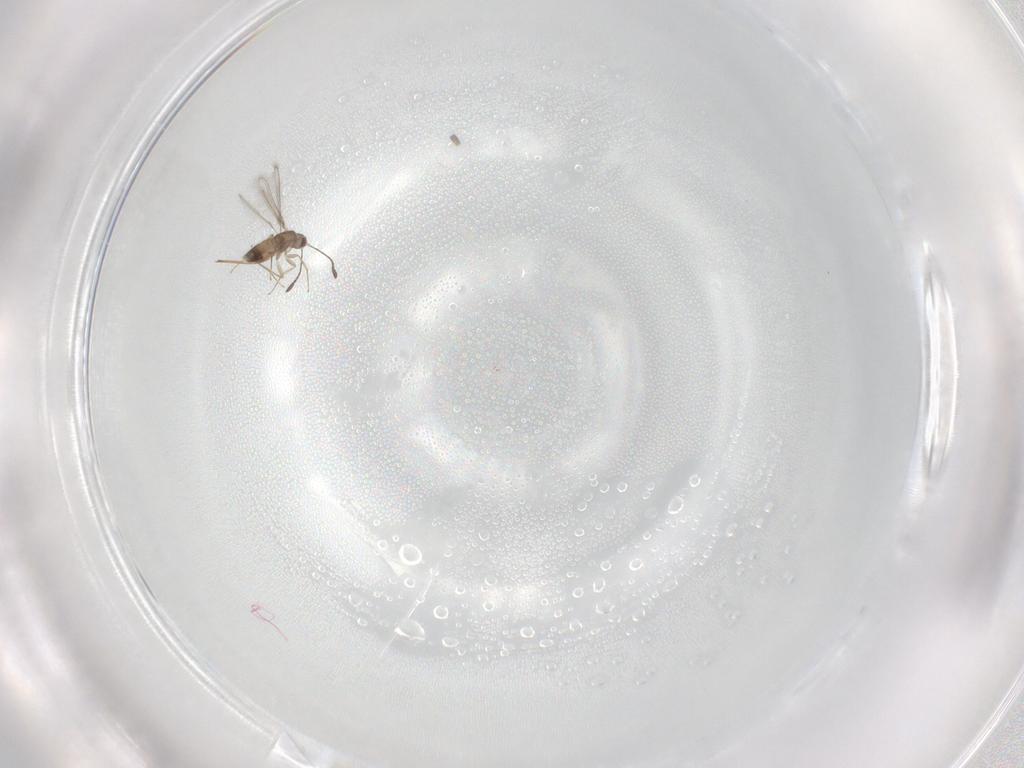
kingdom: Animalia
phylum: Arthropoda
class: Insecta
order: Hymenoptera
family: Mymaridae
